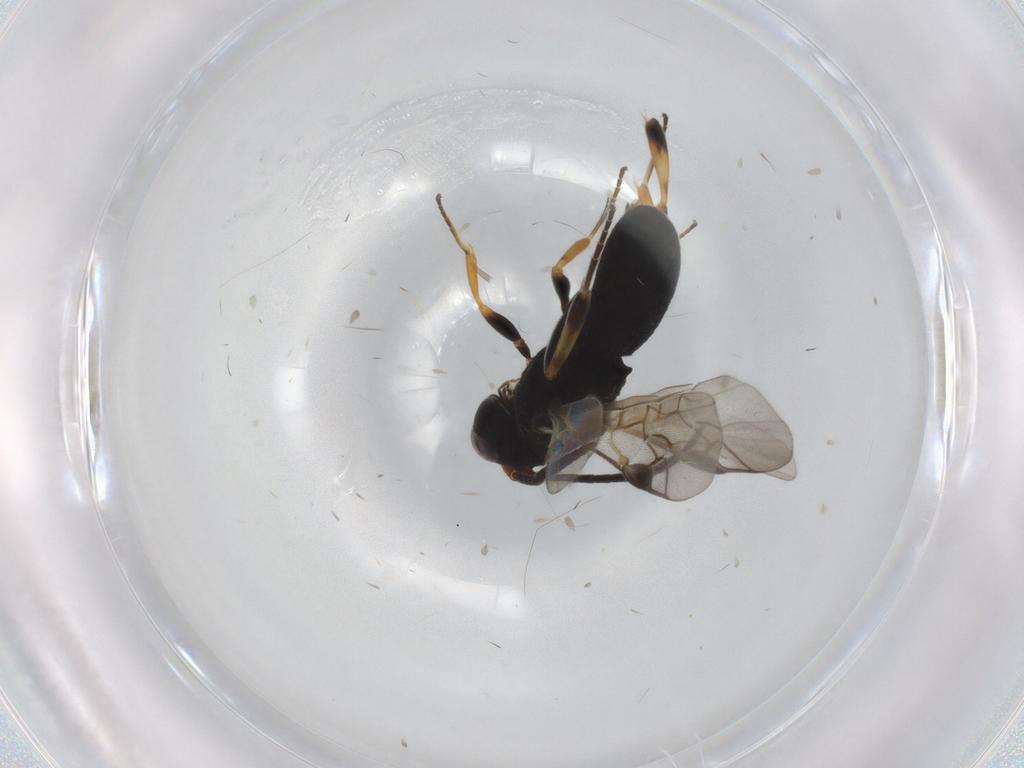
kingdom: Animalia
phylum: Arthropoda
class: Insecta
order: Hymenoptera
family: Braconidae
